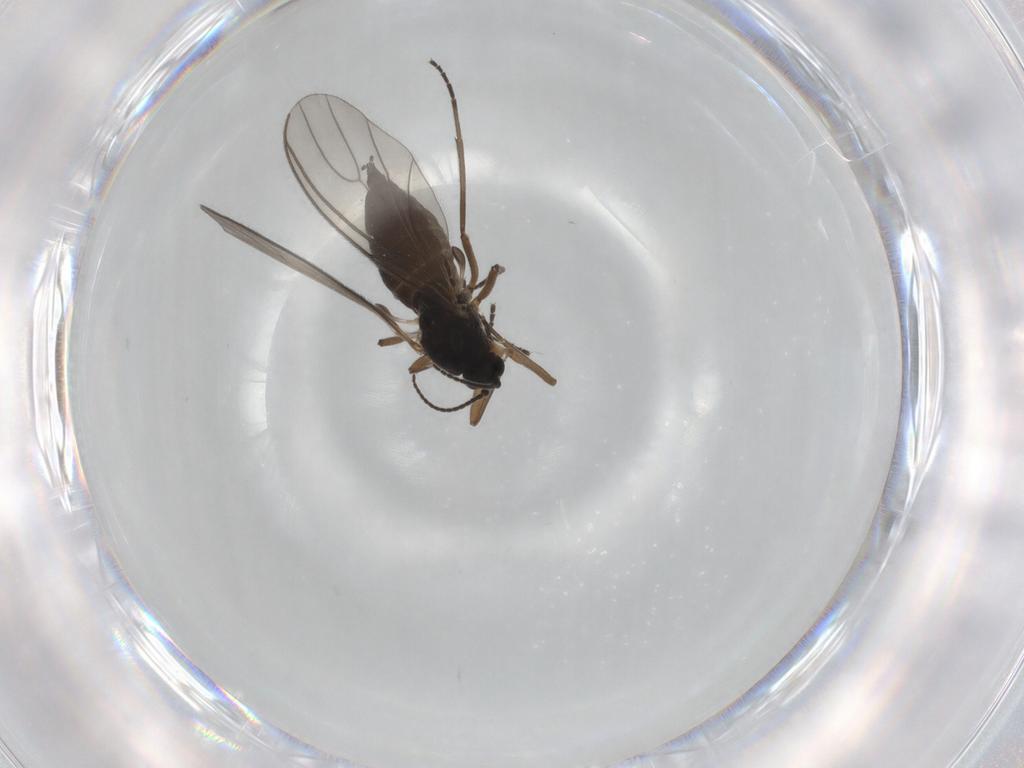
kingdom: Animalia
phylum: Arthropoda
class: Insecta
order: Diptera
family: Sciaridae
